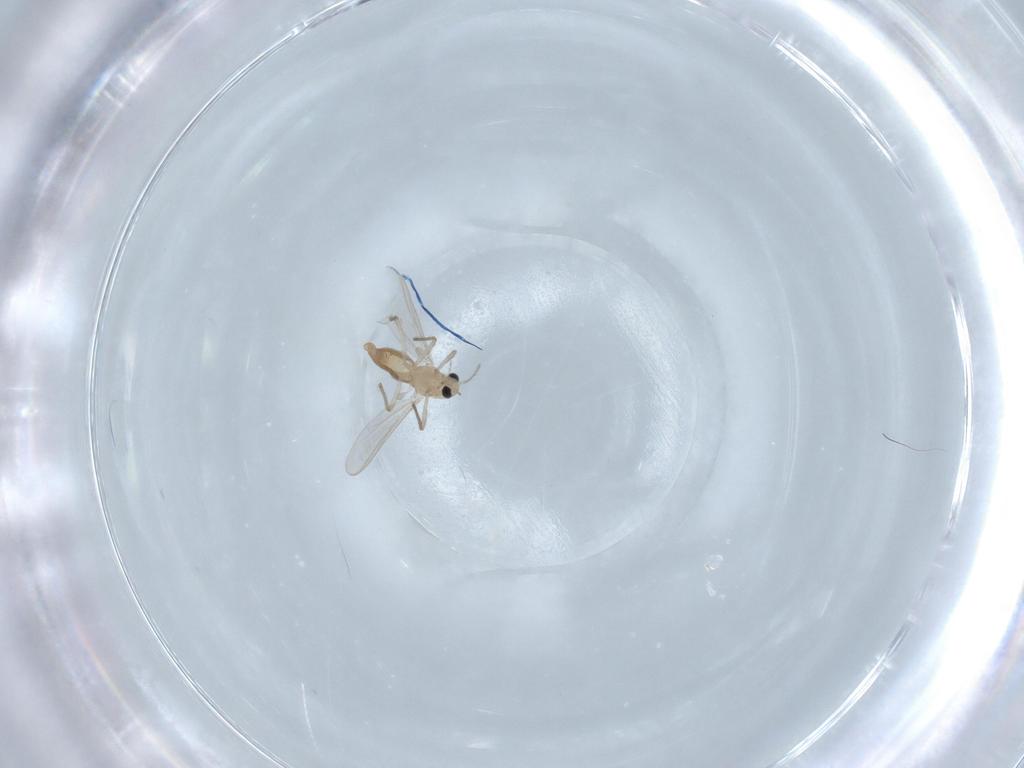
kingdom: Animalia
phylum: Arthropoda
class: Insecta
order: Diptera
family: Chironomidae
